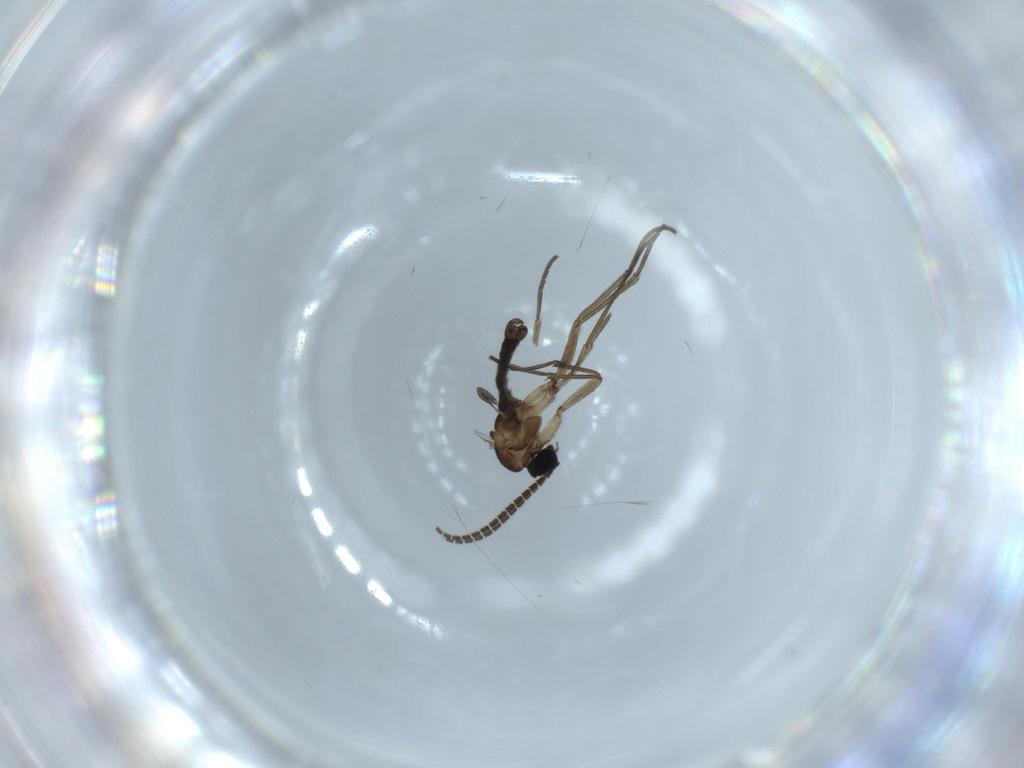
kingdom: Animalia
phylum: Arthropoda
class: Insecta
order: Diptera
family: Sciaridae
